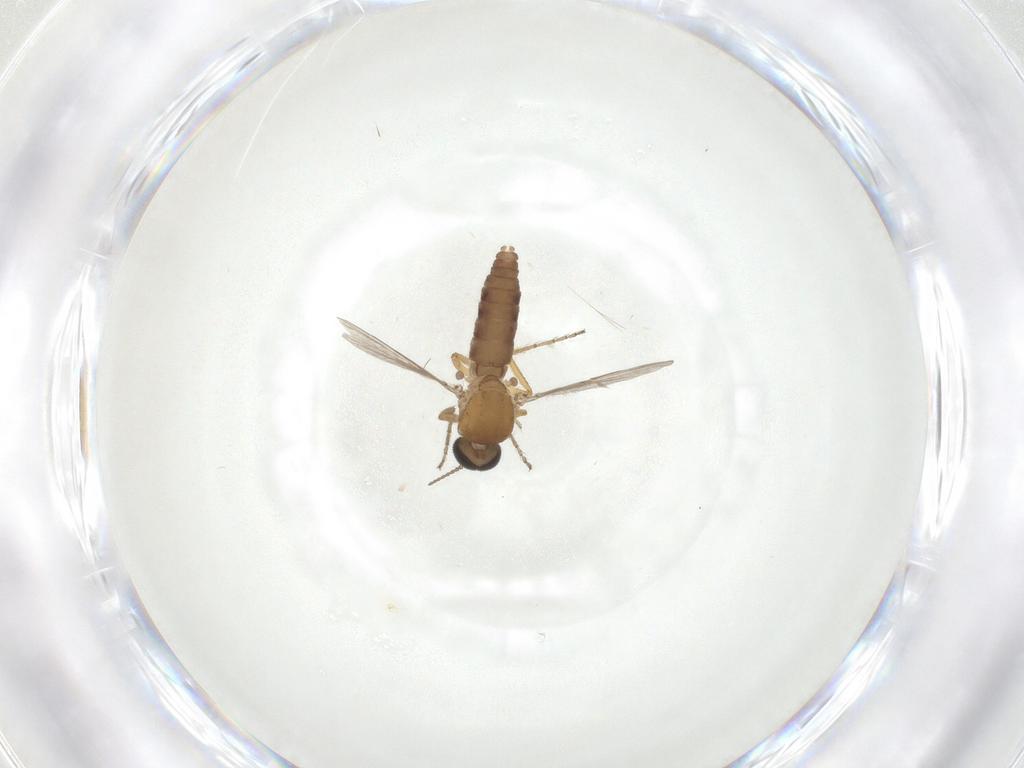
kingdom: Animalia
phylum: Arthropoda
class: Insecta
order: Diptera
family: Ceratopogonidae
